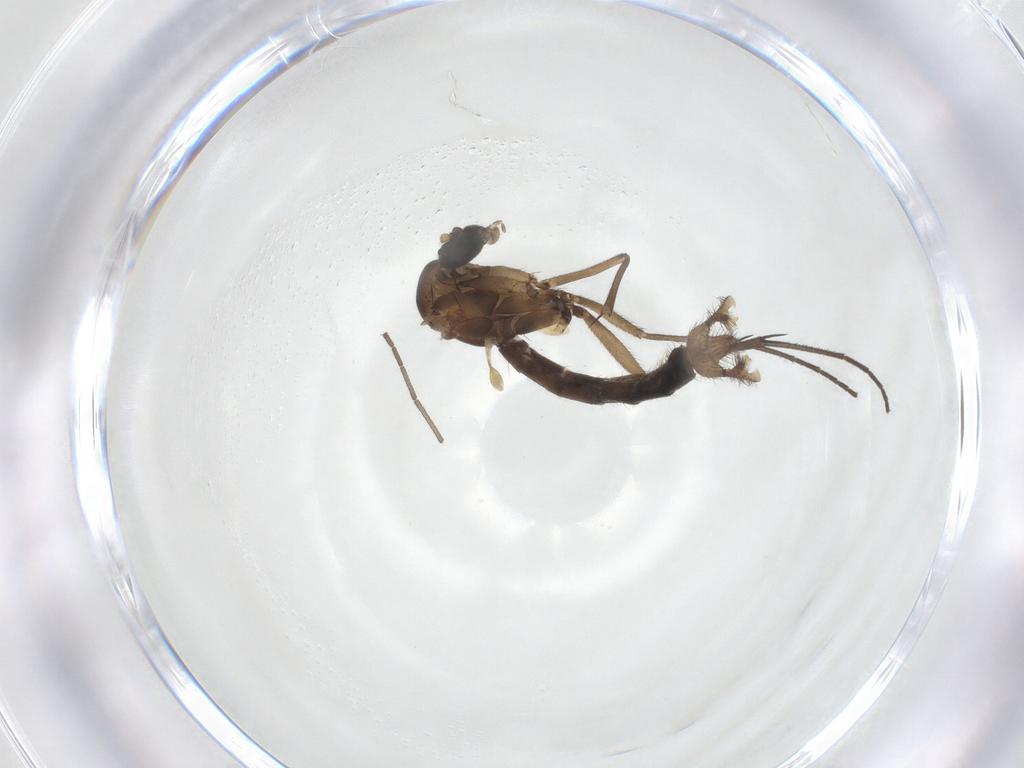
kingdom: Animalia
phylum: Arthropoda
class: Insecta
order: Diptera
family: Mycetophilidae
